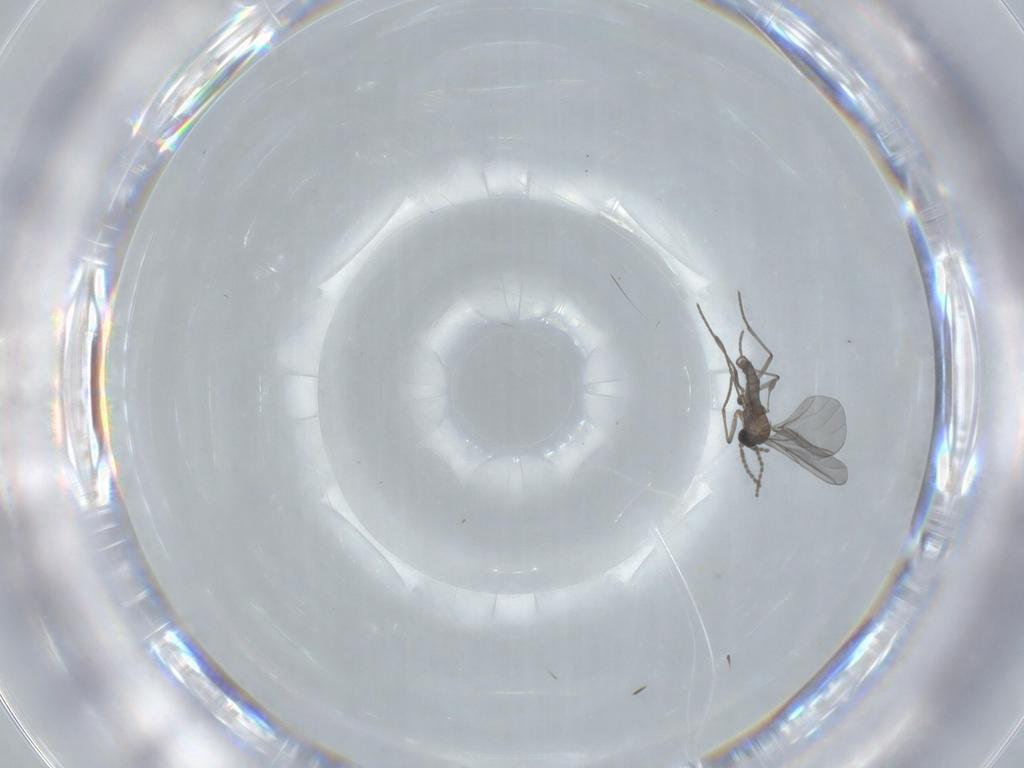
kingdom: Animalia
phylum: Arthropoda
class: Insecta
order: Diptera
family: Sciaridae
